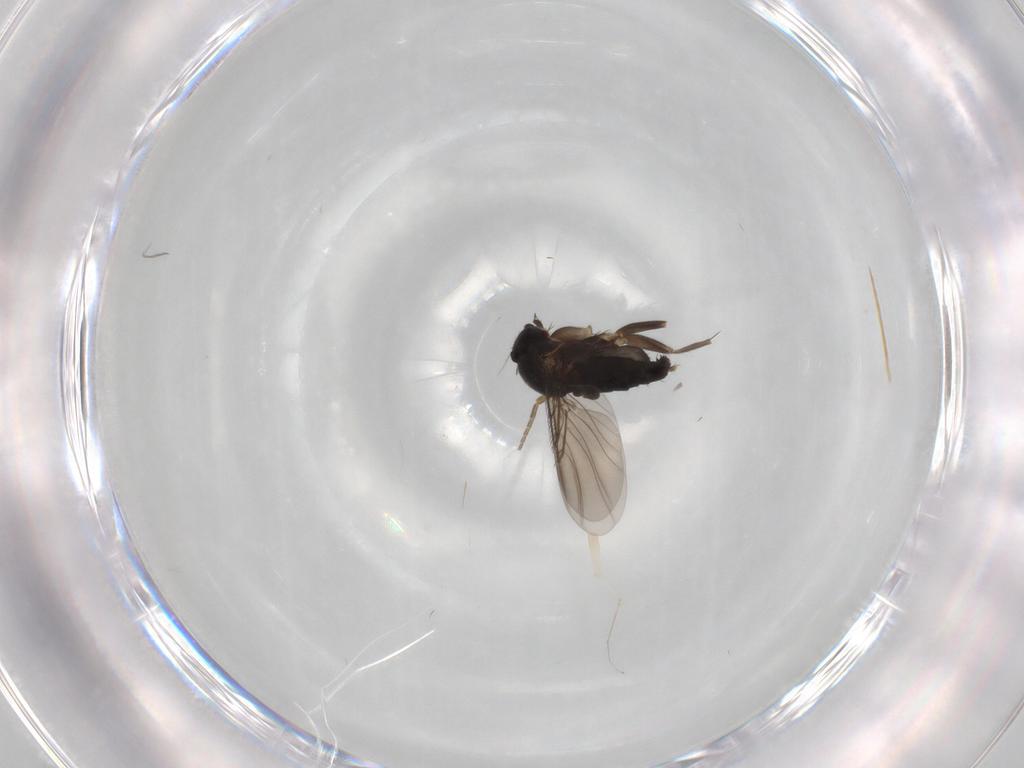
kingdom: Animalia
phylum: Arthropoda
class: Insecta
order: Diptera
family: Phoridae
